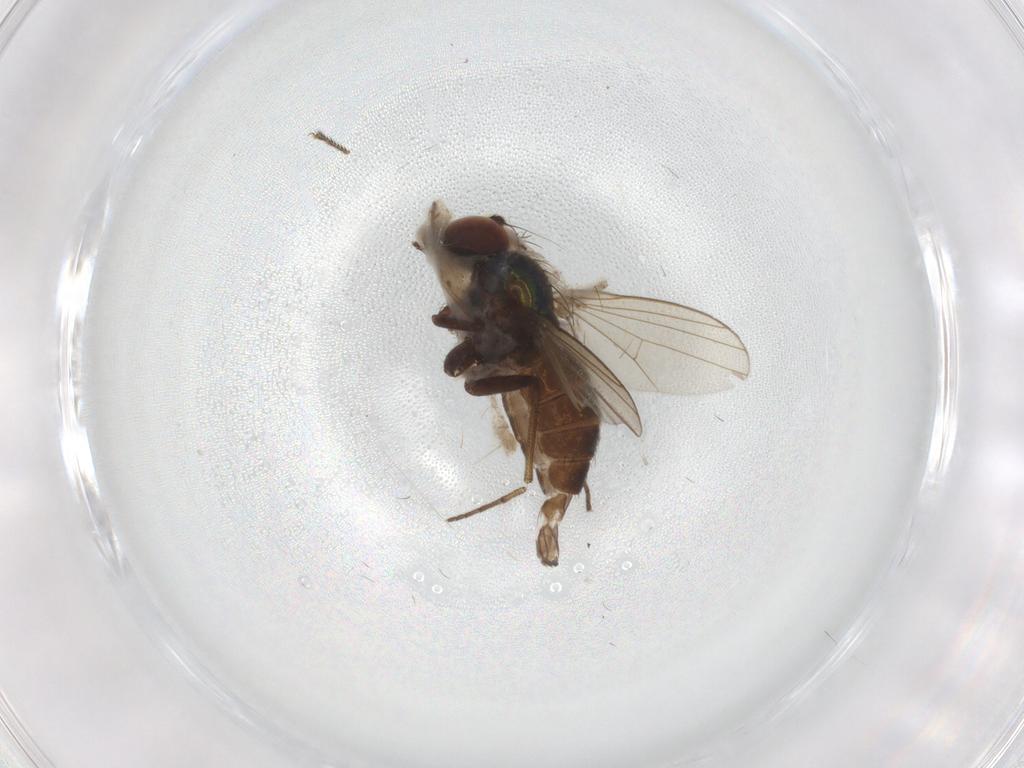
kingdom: Animalia
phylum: Arthropoda
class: Insecta
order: Diptera
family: Dolichopodidae
